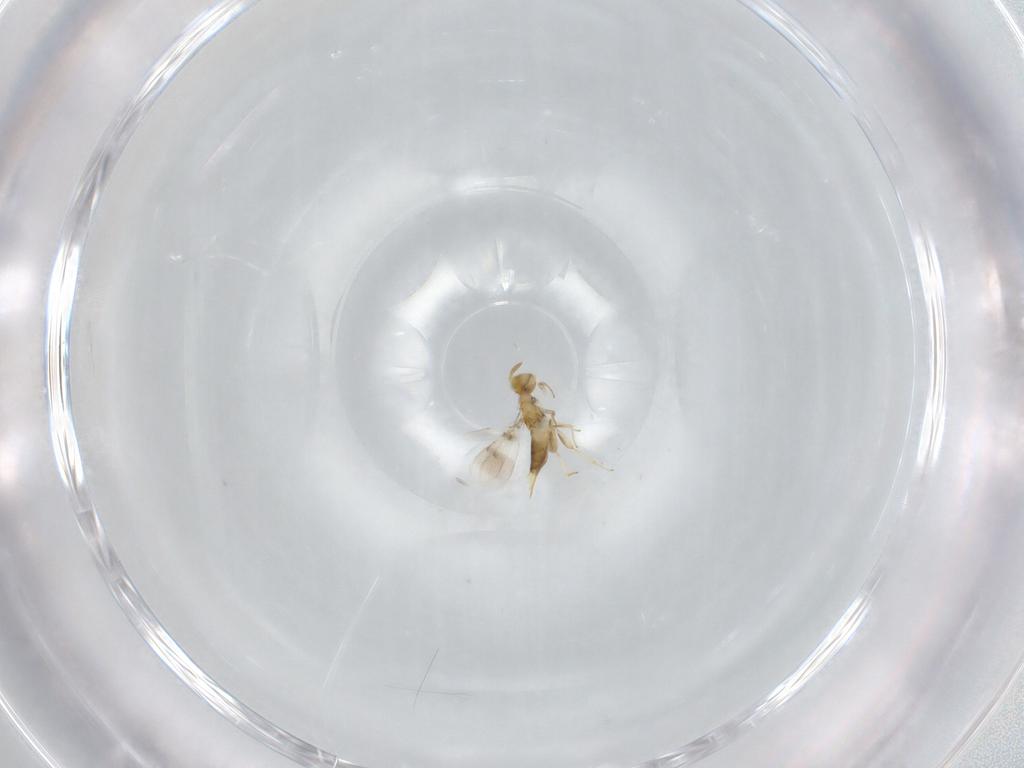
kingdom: Animalia
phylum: Arthropoda
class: Insecta
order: Hymenoptera
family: Aphelinidae
